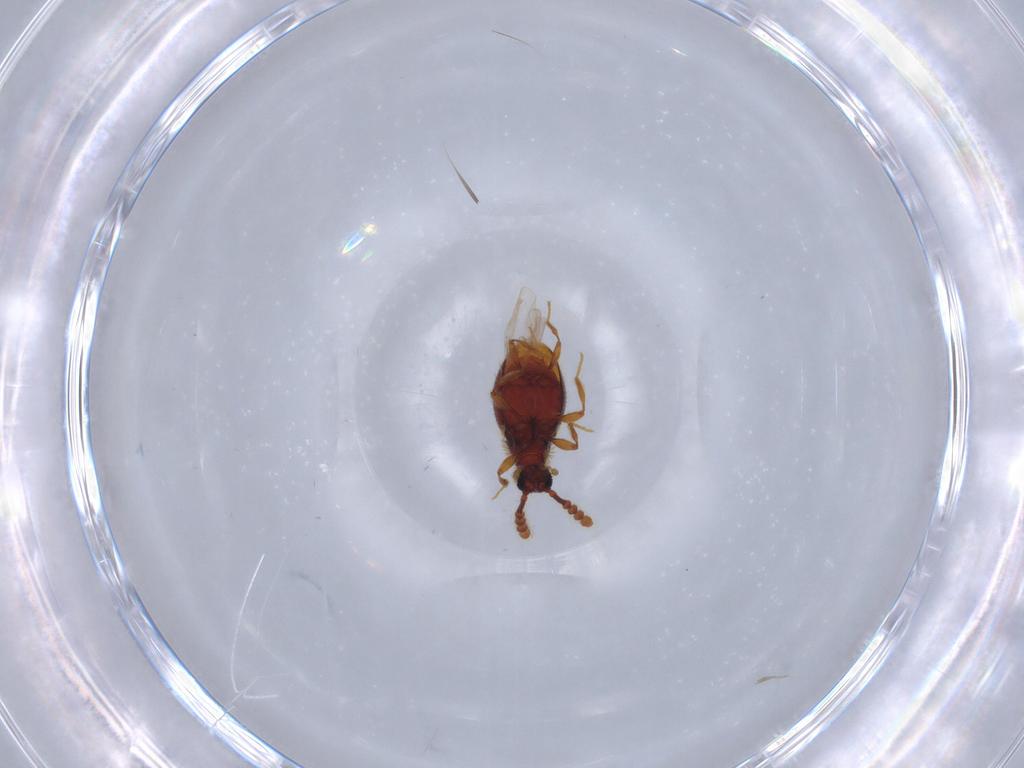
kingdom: Animalia
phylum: Arthropoda
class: Insecta
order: Coleoptera
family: Staphylinidae
